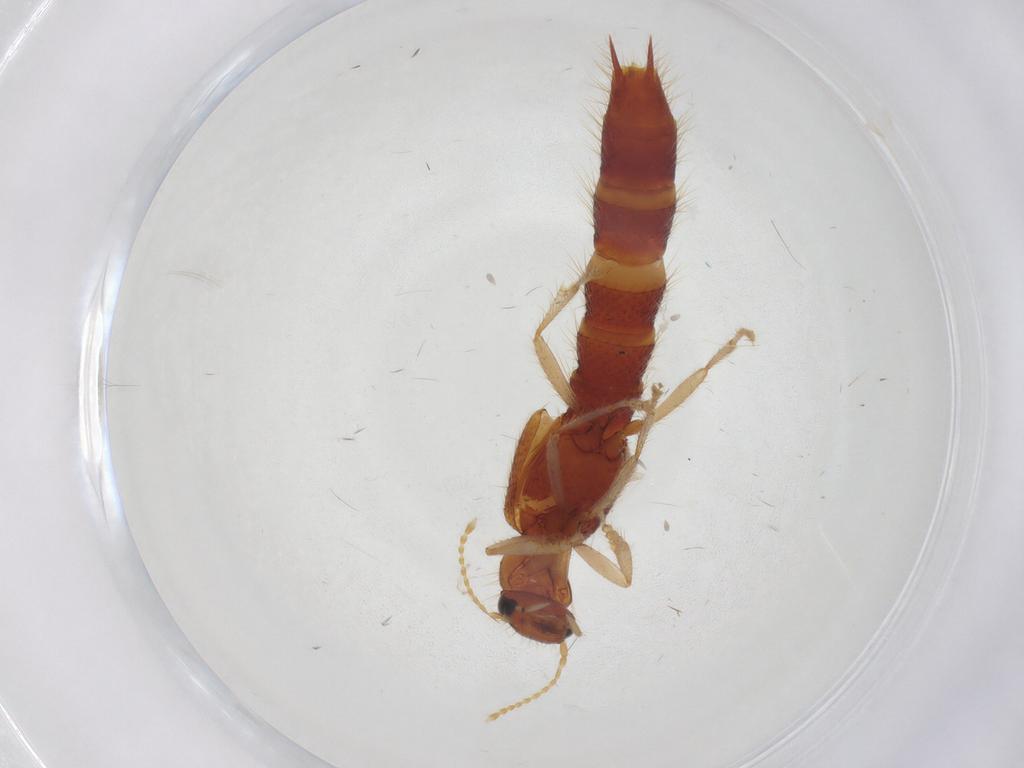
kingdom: Animalia
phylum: Arthropoda
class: Insecta
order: Coleoptera
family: Staphylinidae
